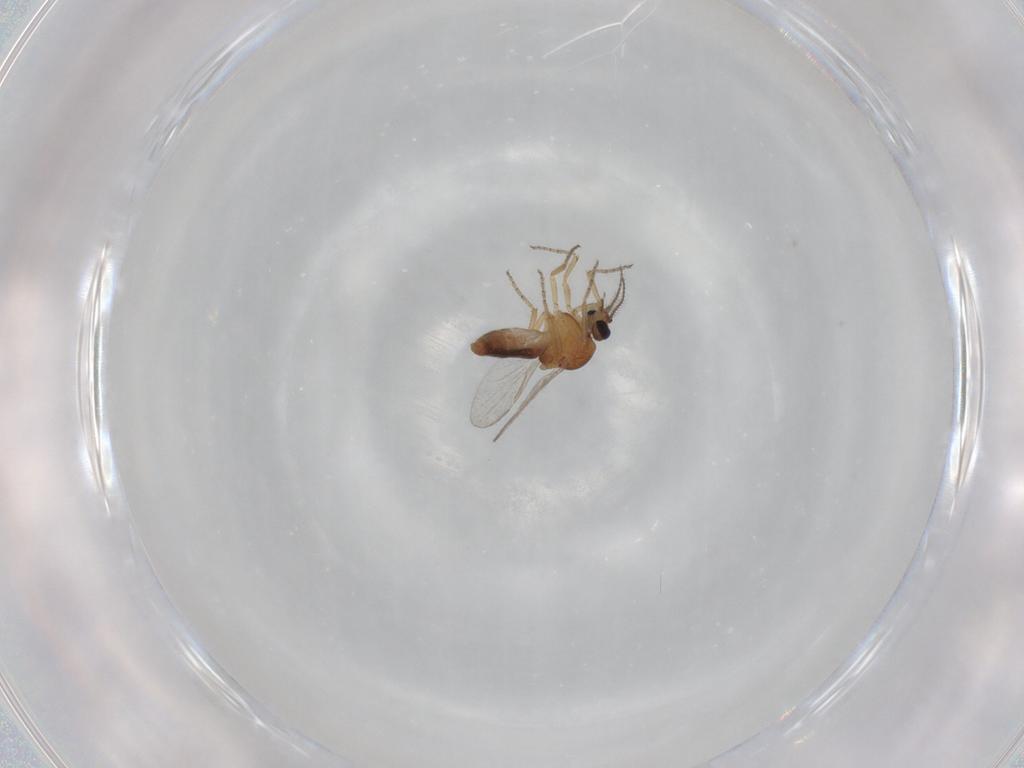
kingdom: Animalia
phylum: Arthropoda
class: Insecta
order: Diptera
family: Ceratopogonidae
